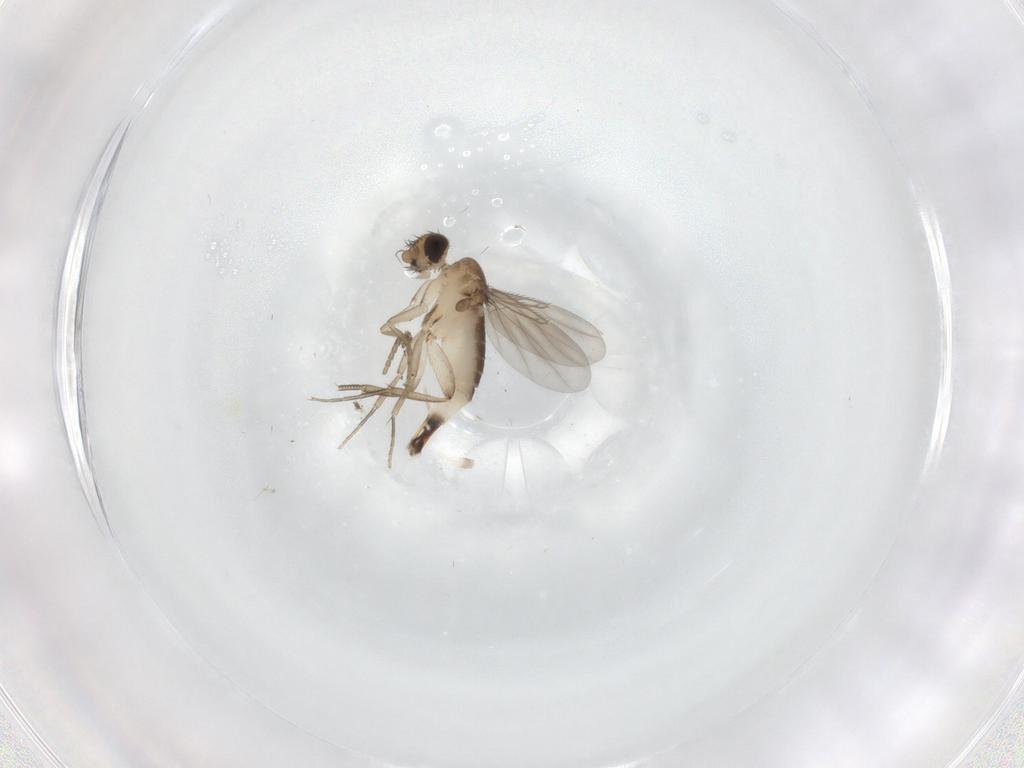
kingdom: Animalia
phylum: Arthropoda
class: Insecta
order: Diptera
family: Phoridae
